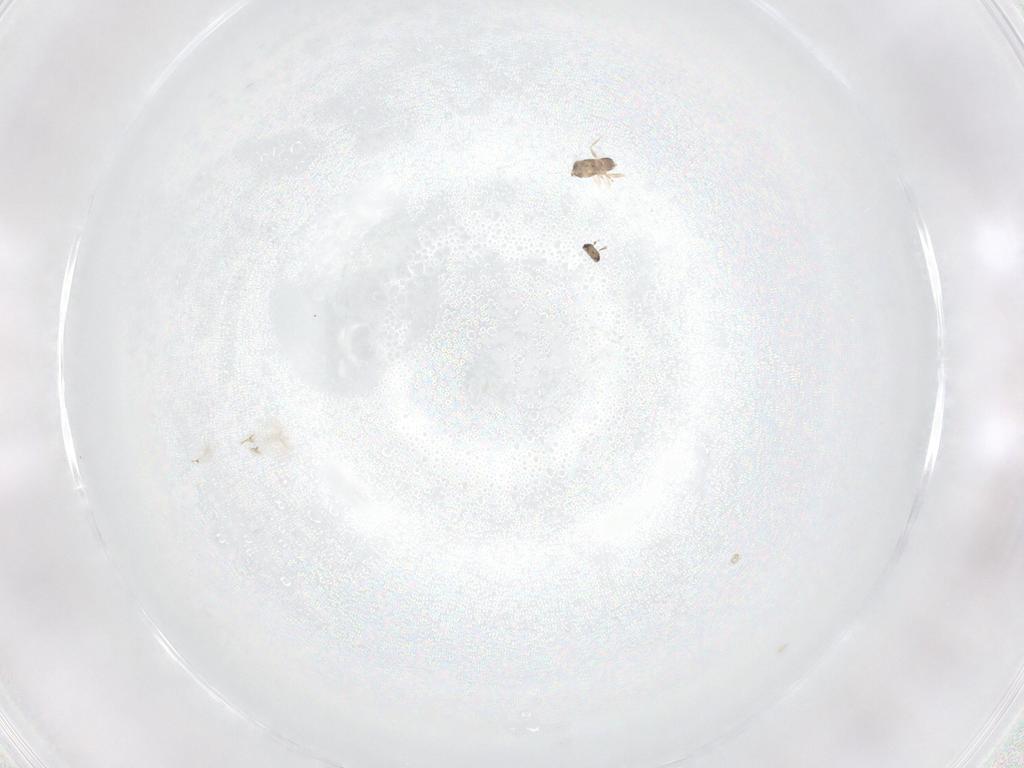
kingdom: Animalia
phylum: Arthropoda
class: Insecta
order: Hymenoptera
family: Mymaridae
